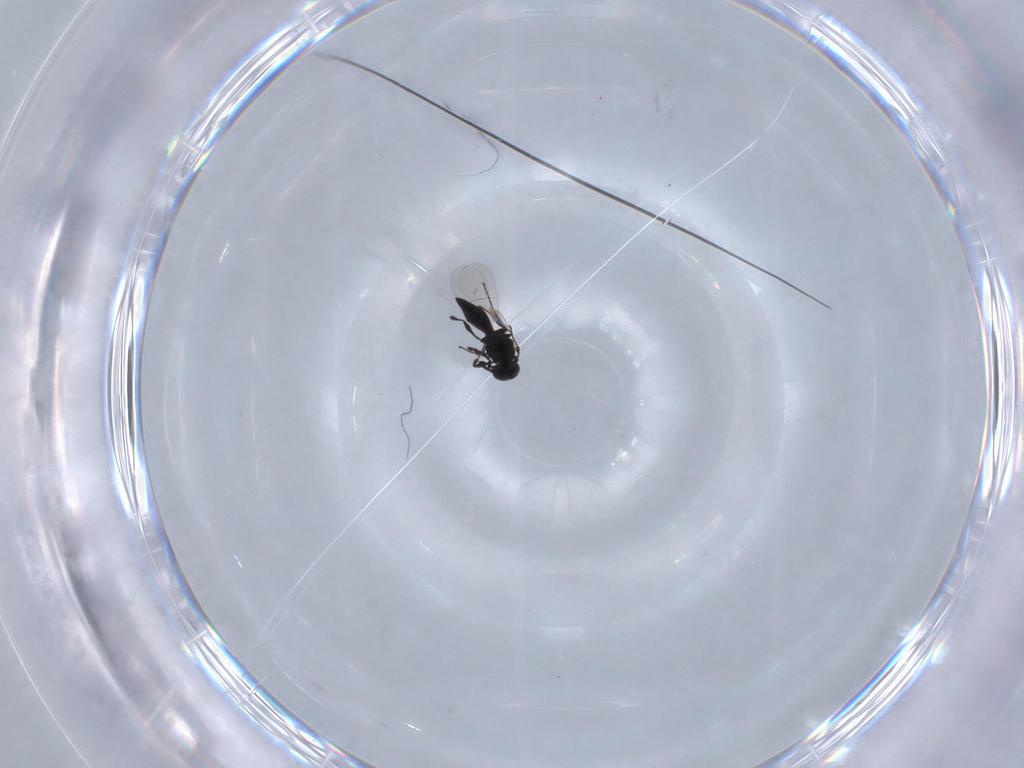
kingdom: Animalia
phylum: Arthropoda
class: Insecta
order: Hymenoptera
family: Platygastridae
